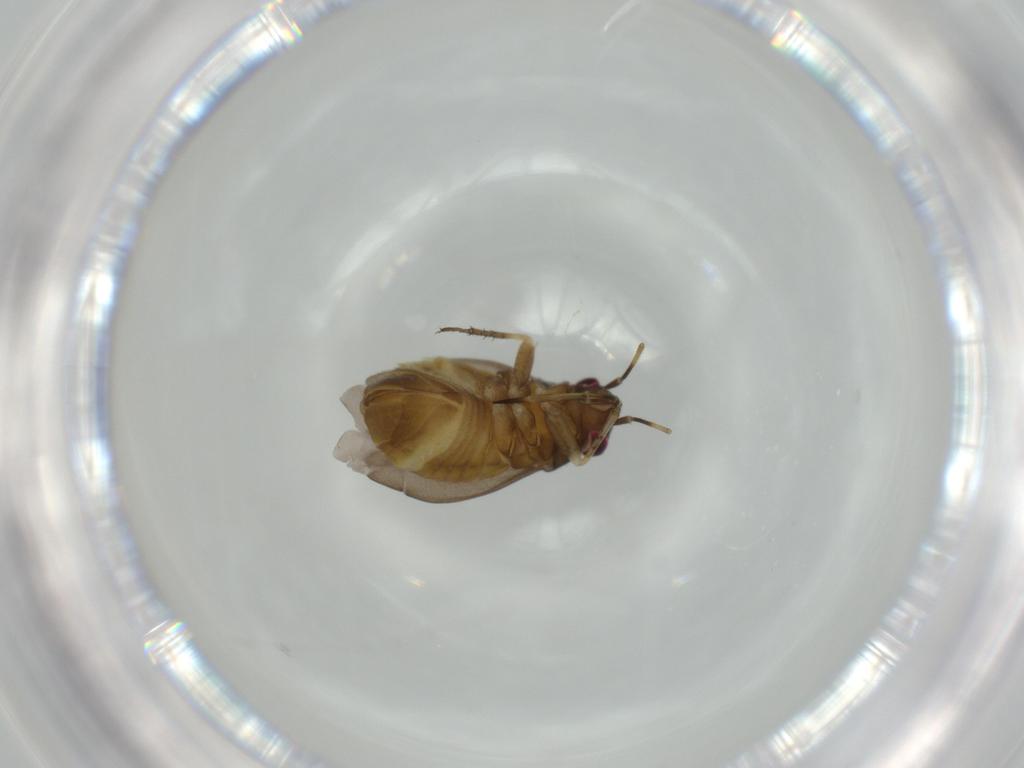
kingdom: Animalia
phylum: Arthropoda
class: Insecta
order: Hemiptera
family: Miridae
